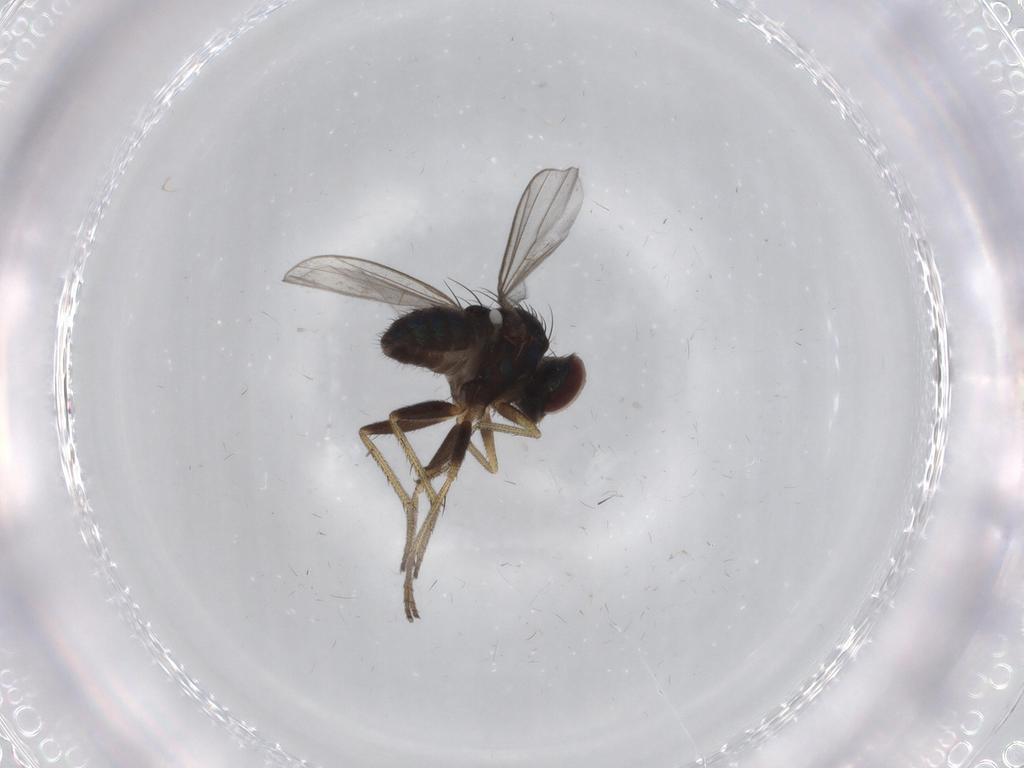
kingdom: Animalia
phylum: Arthropoda
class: Insecta
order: Diptera
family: Dolichopodidae
